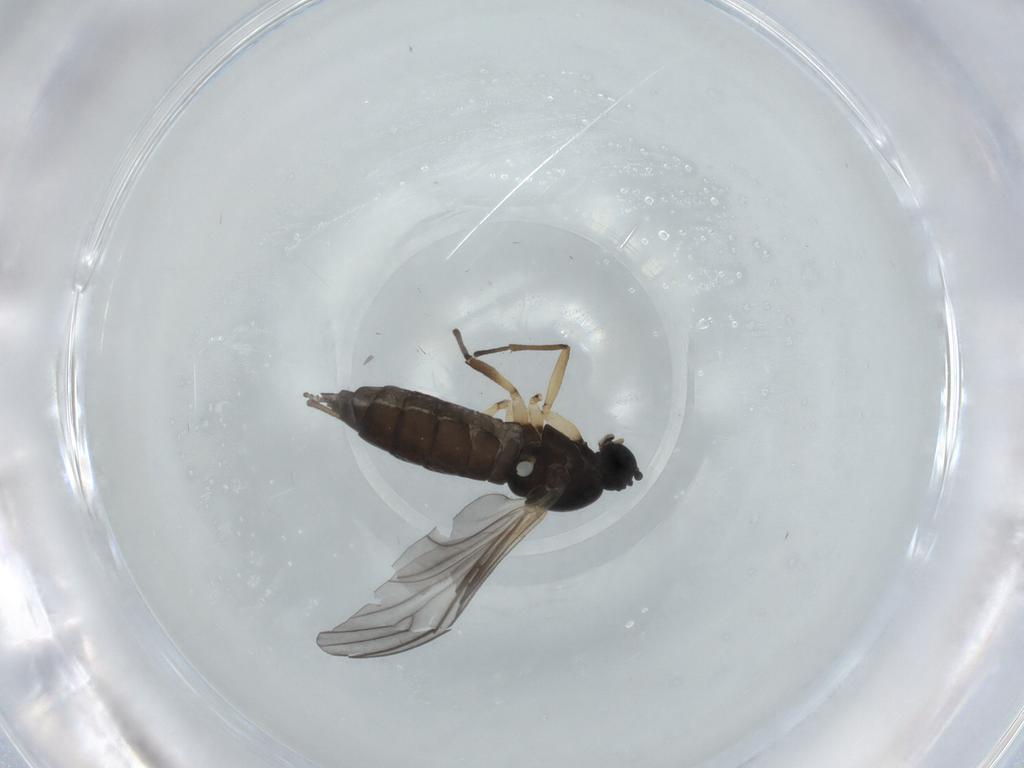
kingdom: Animalia
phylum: Arthropoda
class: Insecta
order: Diptera
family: Sciaridae
